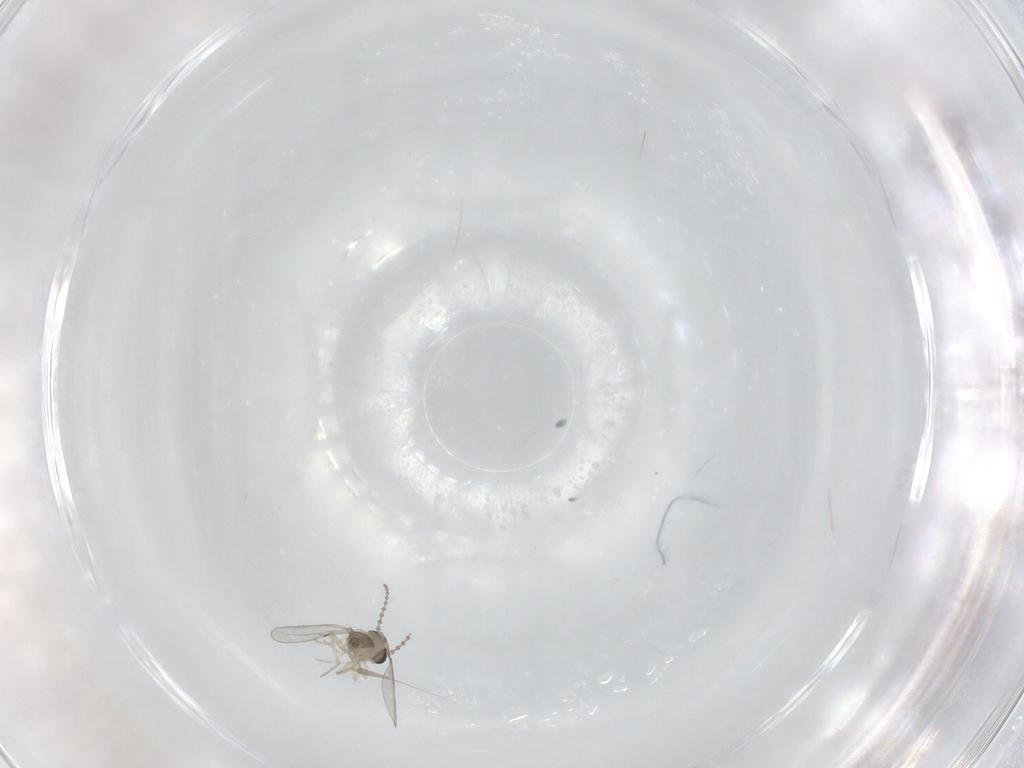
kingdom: Animalia
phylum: Arthropoda
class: Insecta
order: Diptera
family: Cecidomyiidae
